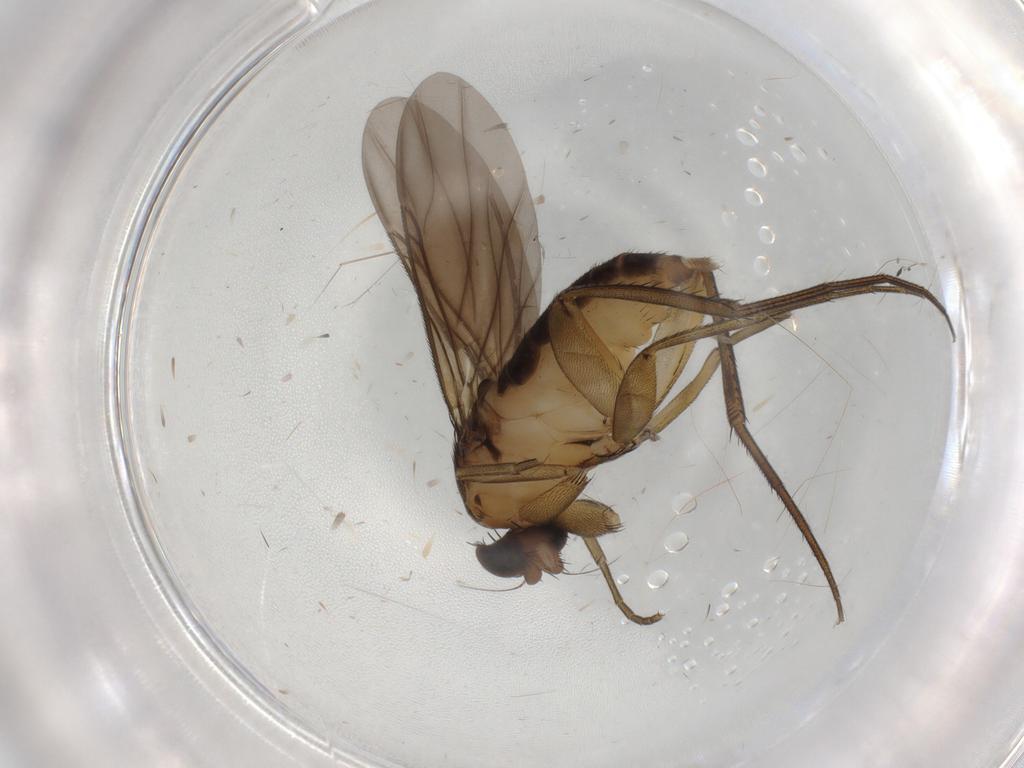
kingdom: Animalia
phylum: Arthropoda
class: Insecta
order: Diptera
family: Phoridae
